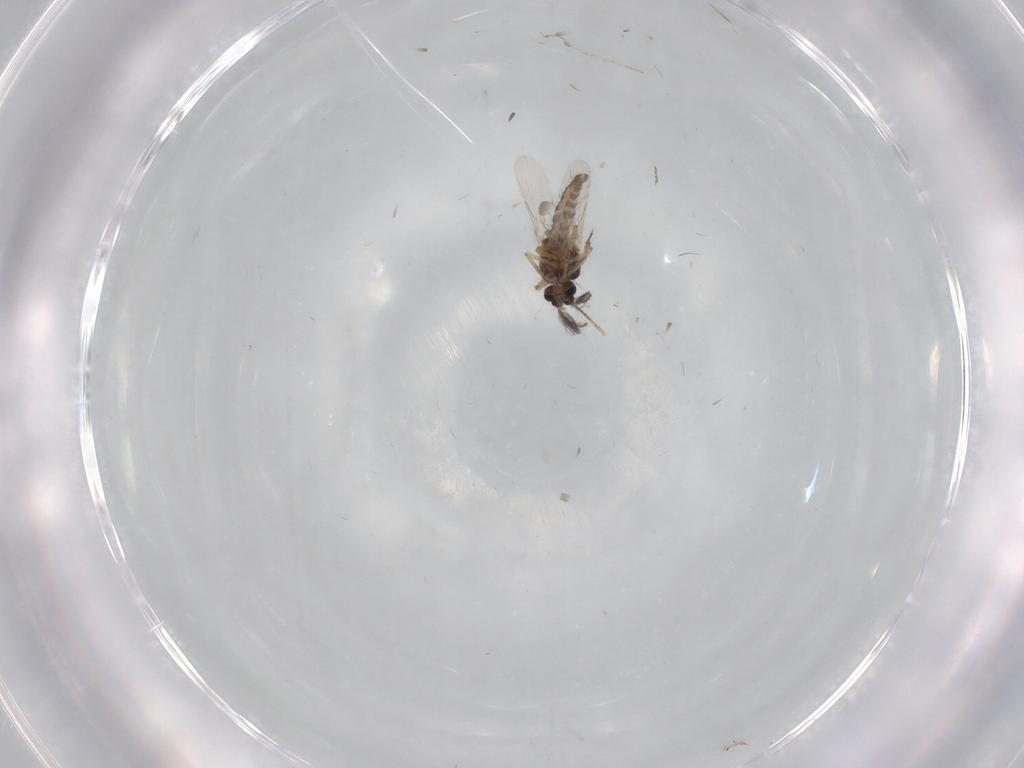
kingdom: Animalia
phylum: Arthropoda
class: Insecta
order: Diptera
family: Ceratopogonidae
